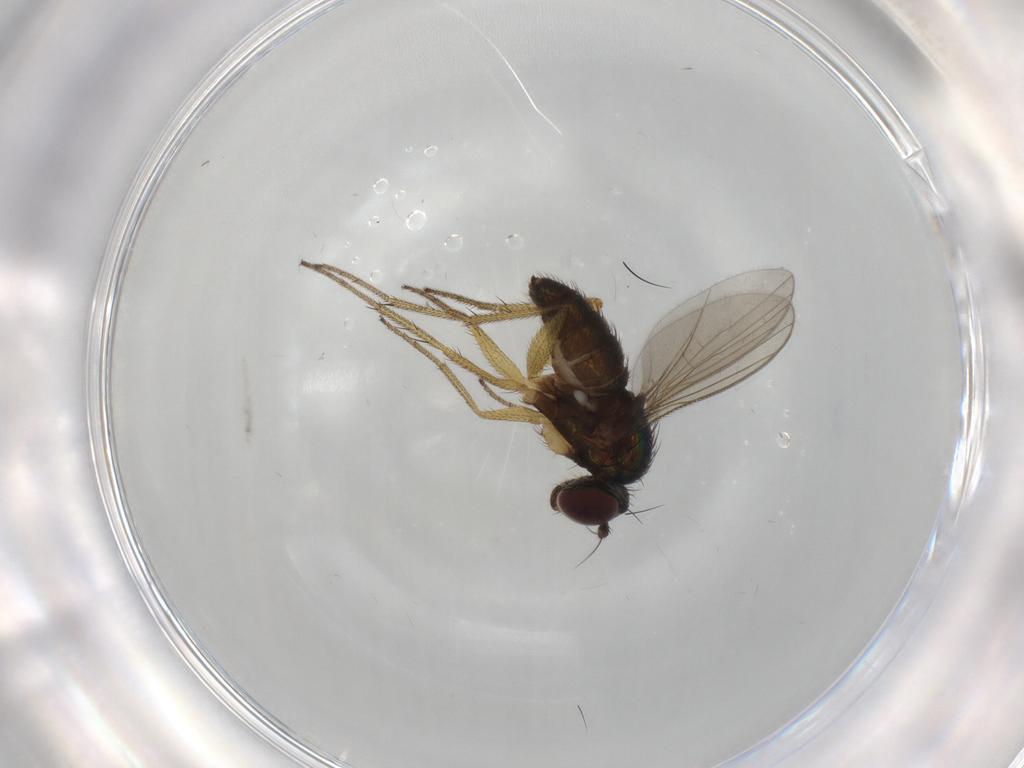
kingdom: Animalia
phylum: Arthropoda
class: Insecta
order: Diptera
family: Dolichopodidae
